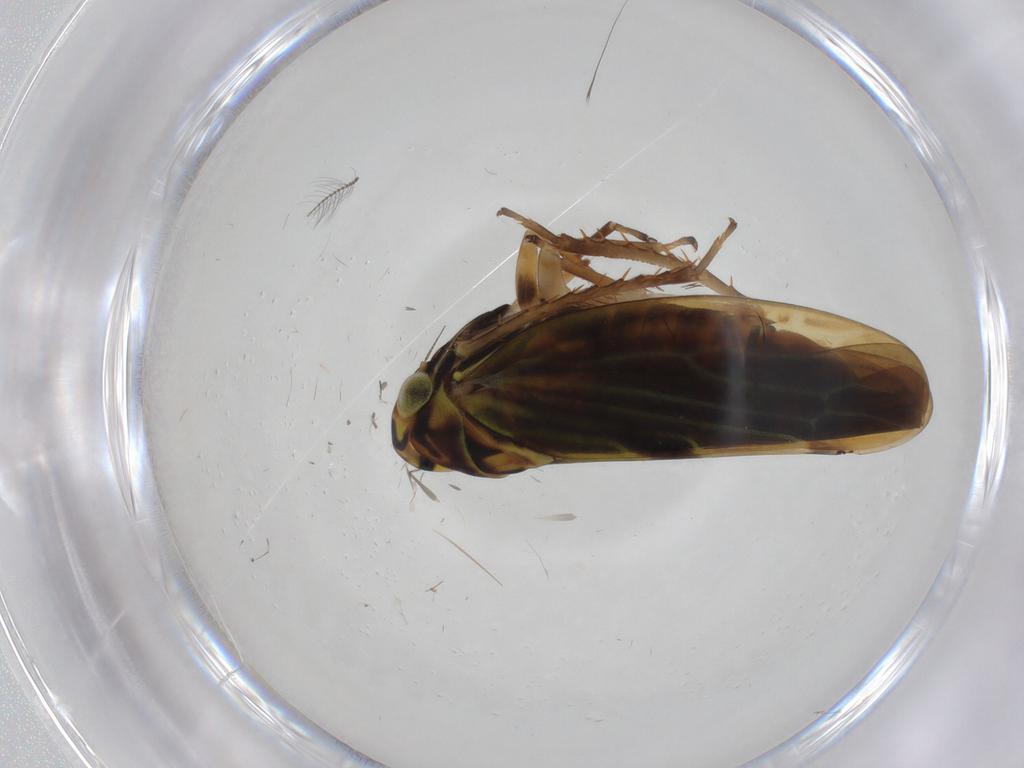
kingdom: Animalia
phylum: Arthropoda
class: Insecta
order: Hemiptera
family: Cicadellidae
